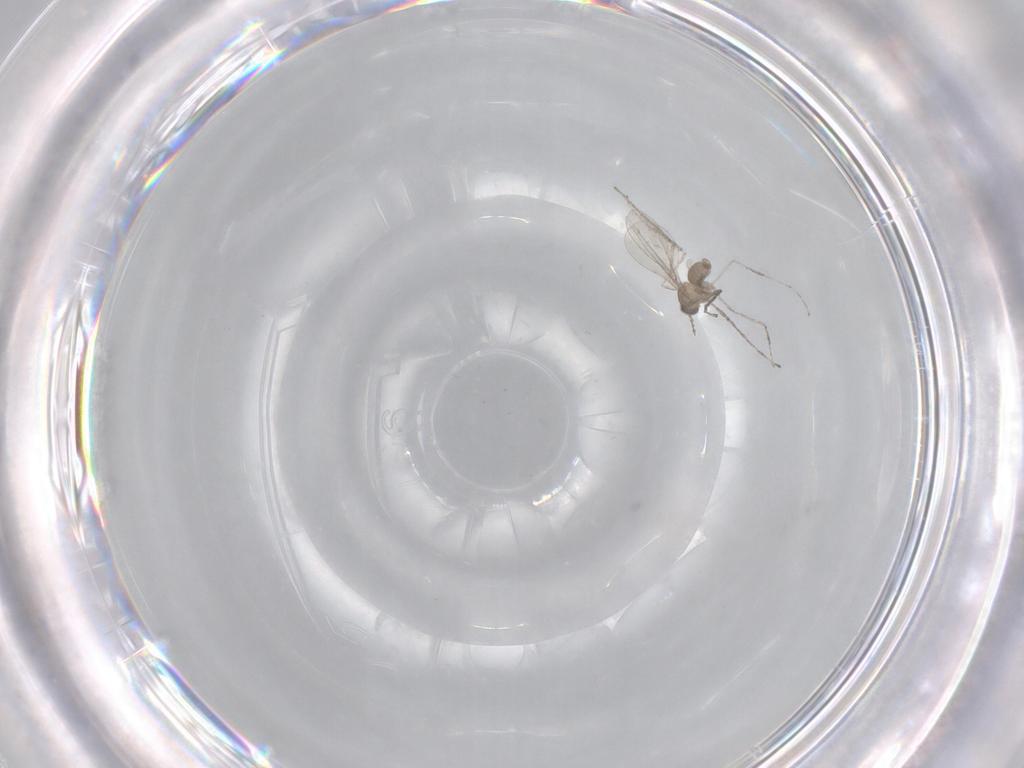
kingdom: Animalia
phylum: Arthropoda
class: Insecta
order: Diptera
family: Cecidomyiidae
